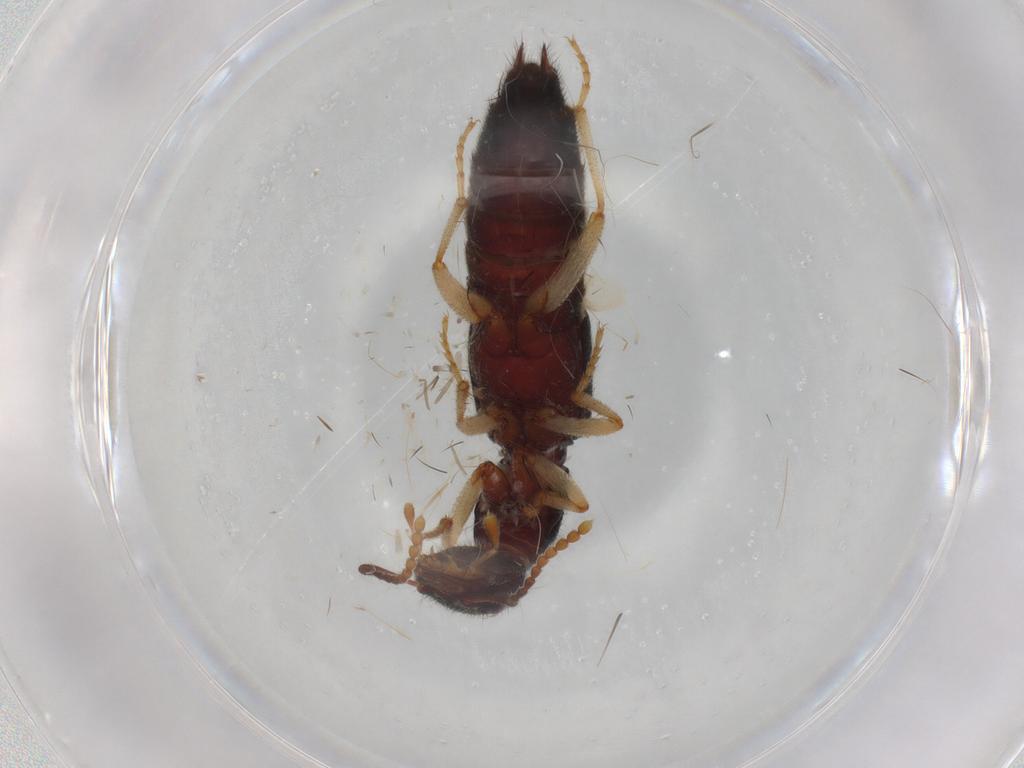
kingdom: Animalia
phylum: Arthropoda
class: Insecta
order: Coleoptera
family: Staphylinidae
